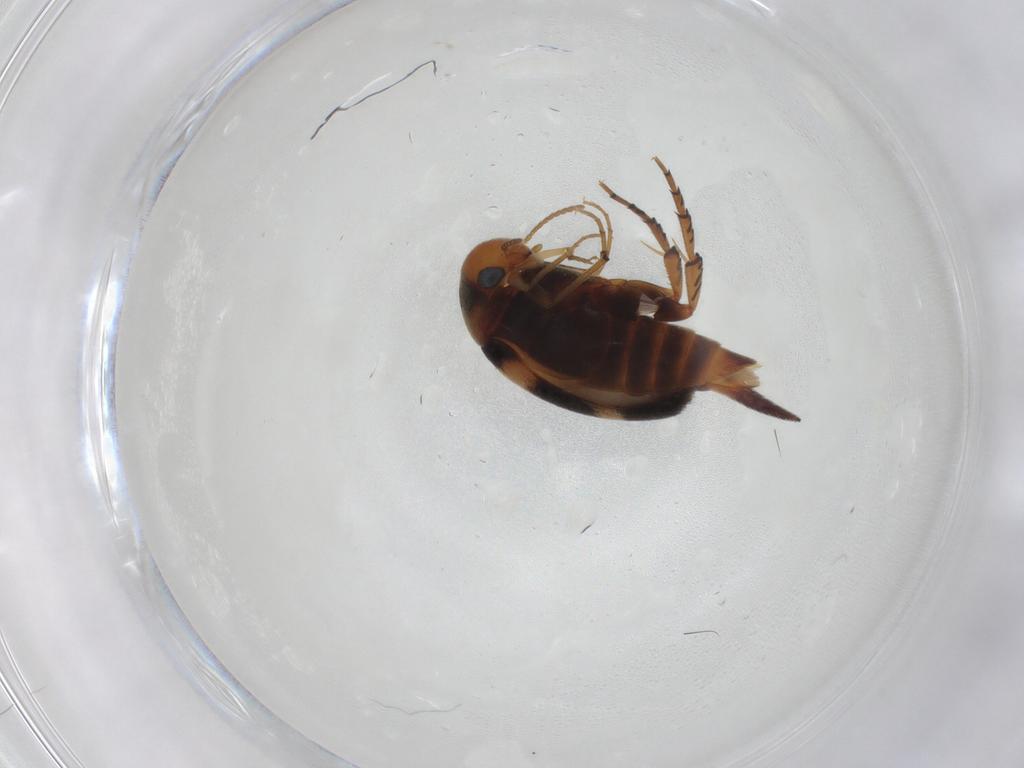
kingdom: Animalia
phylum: Arthropoda
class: Insecta
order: Coleoptera
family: Mordellidae
